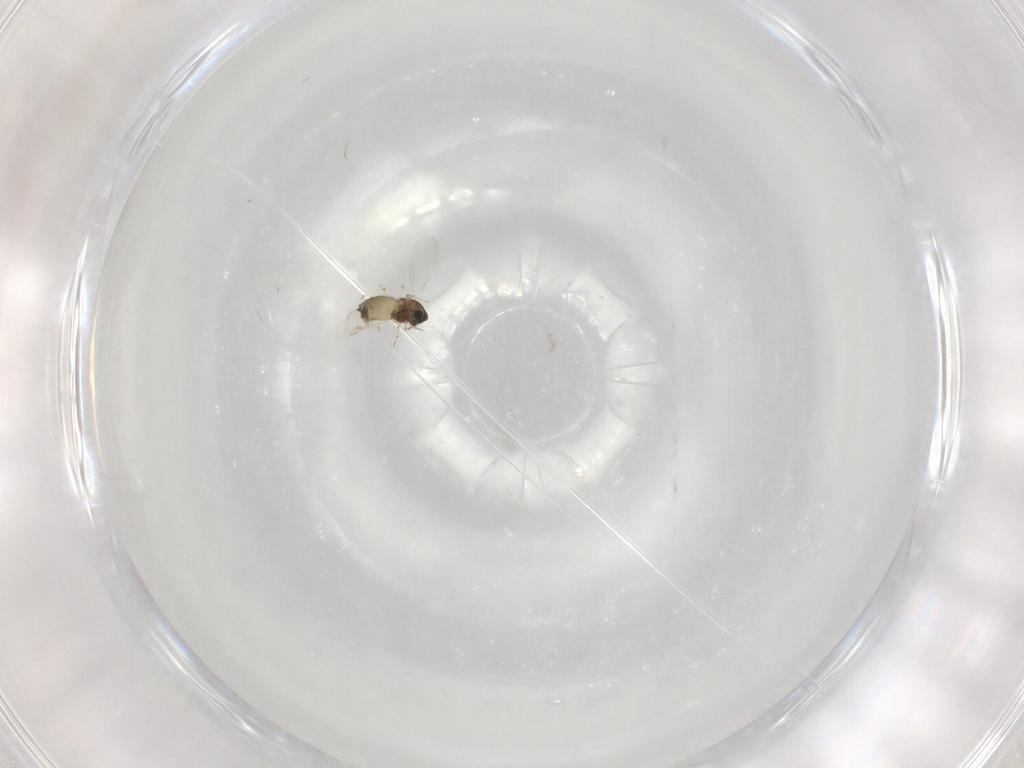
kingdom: Animalia
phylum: Arthropoda
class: Insecta
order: Diptera
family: Chironomidae
